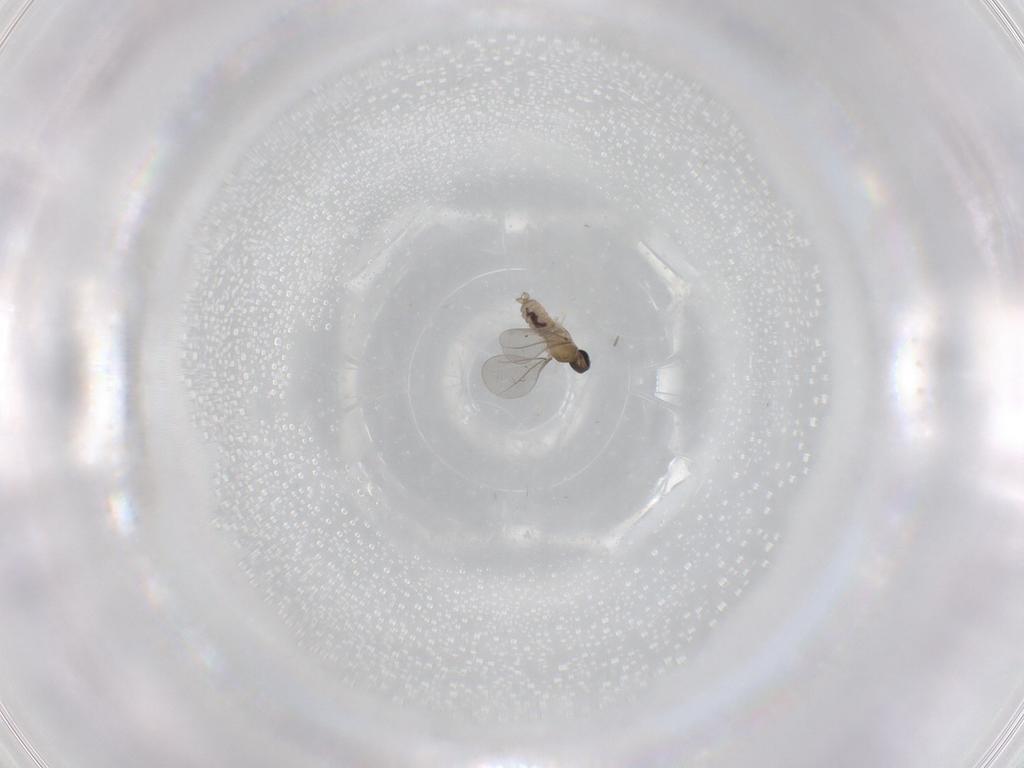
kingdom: Animalia
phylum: Arthropoda
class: Insecta
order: Diptera
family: Cecidomyiidae
